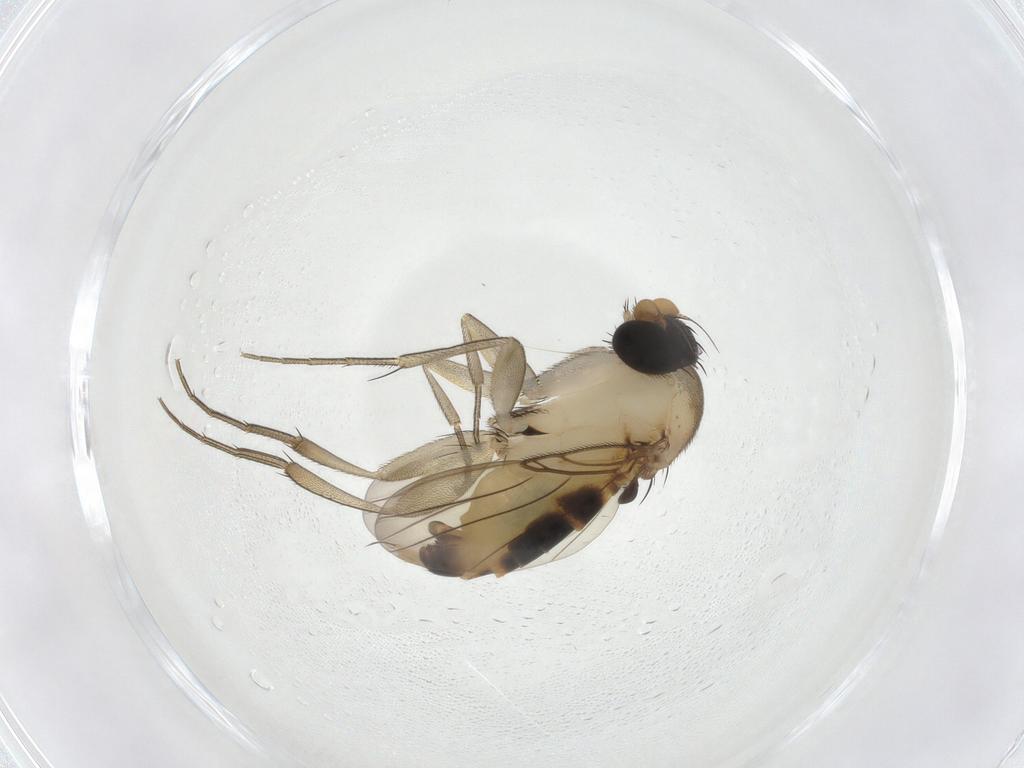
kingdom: Animalia
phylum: Arthropoda
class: Insecta
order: Diptera
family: Phoridae
